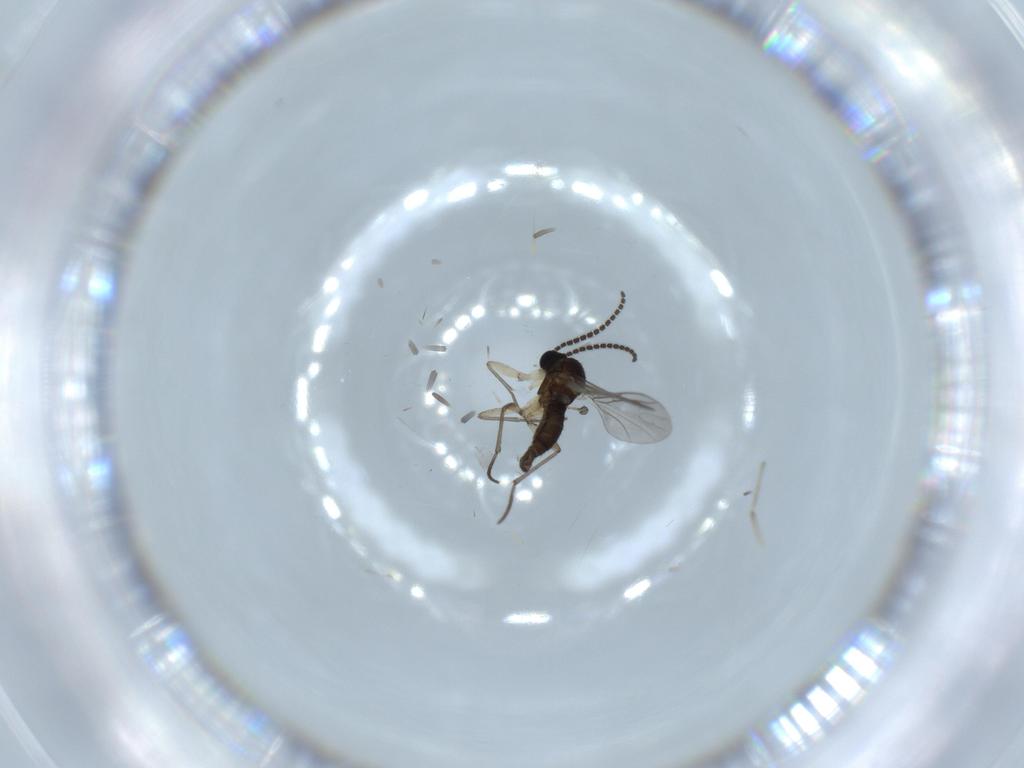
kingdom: Animalia
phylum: Arthropoda
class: Insecta
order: Diptera
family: Sciaridae
